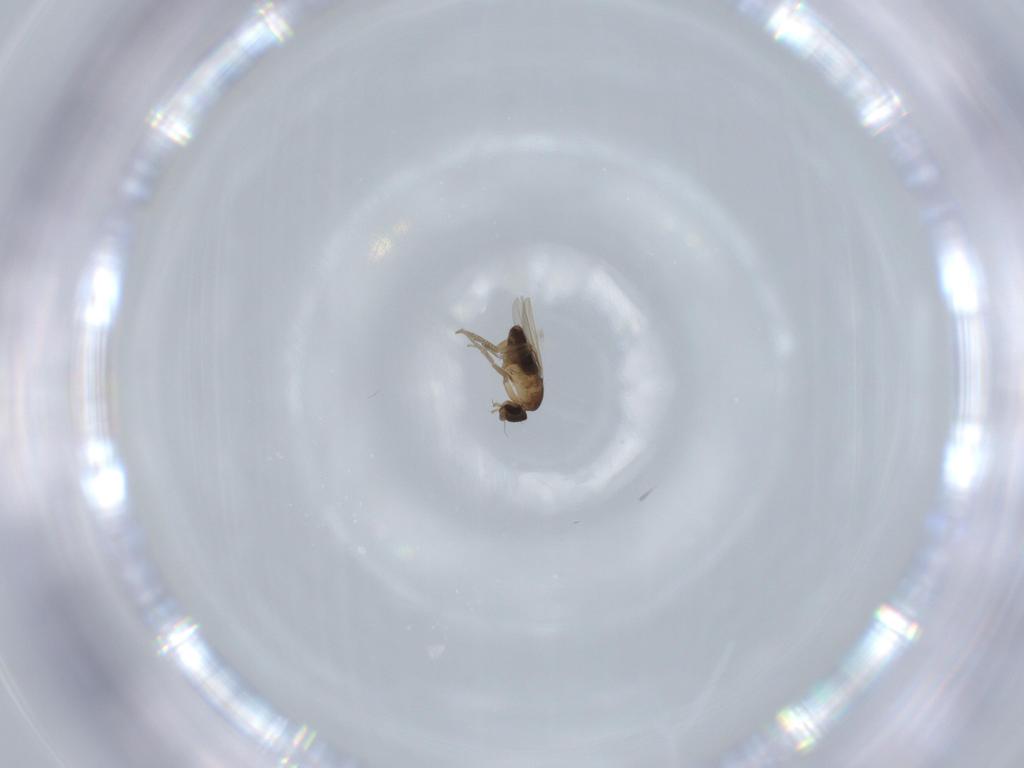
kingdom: Animalia
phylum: Arthropoda
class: Insecta
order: Diptera
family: Phoridae
